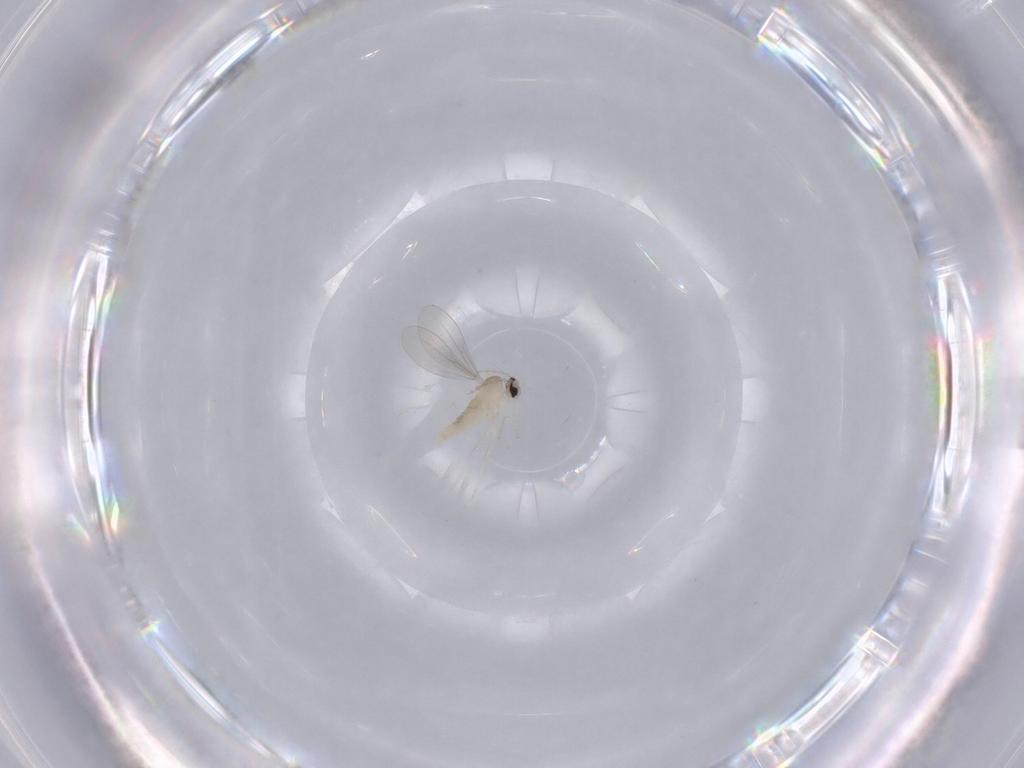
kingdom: Animalia
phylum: Arthropoda
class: Insecta
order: Diptera
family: Cecidomyiidae
